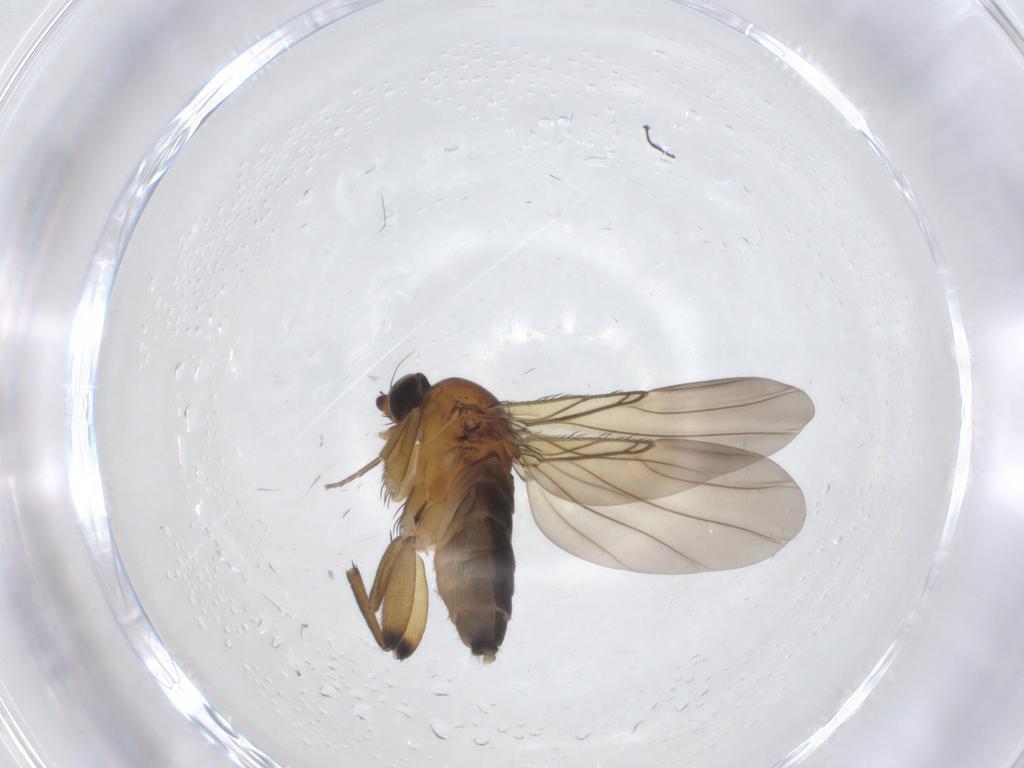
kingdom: Animalia
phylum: Arthropoda
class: Insecta
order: Diptera
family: Phoridae
